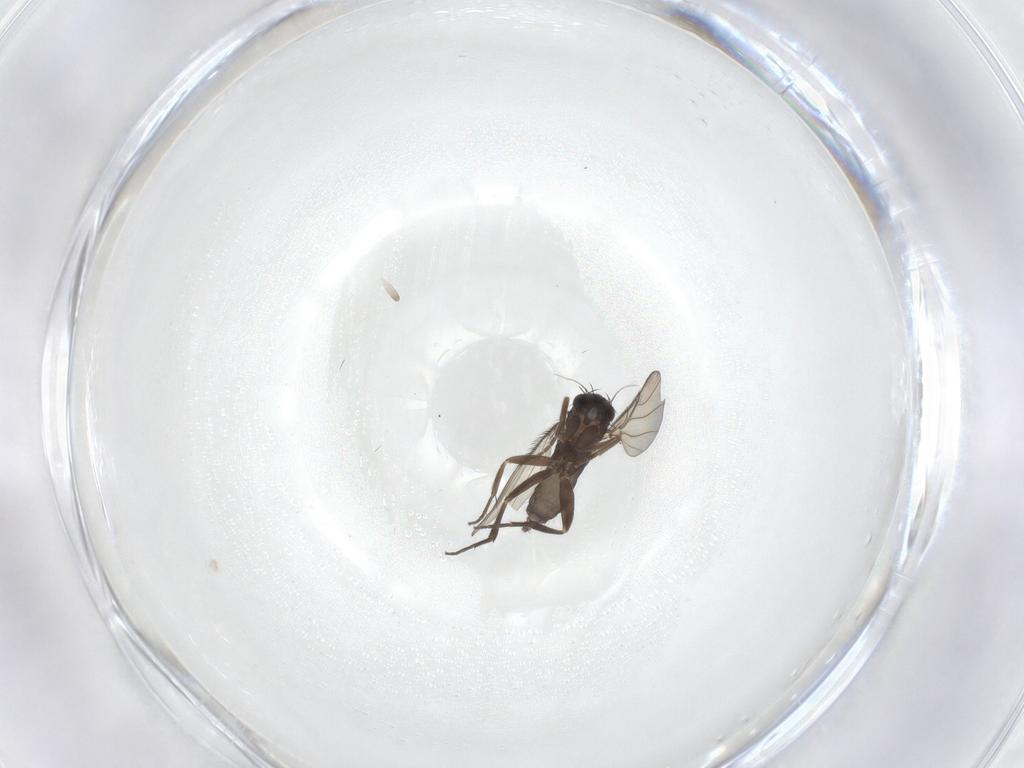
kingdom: Animalia
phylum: Arthropoda
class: Insecta
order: Diptera
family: Phoridae
